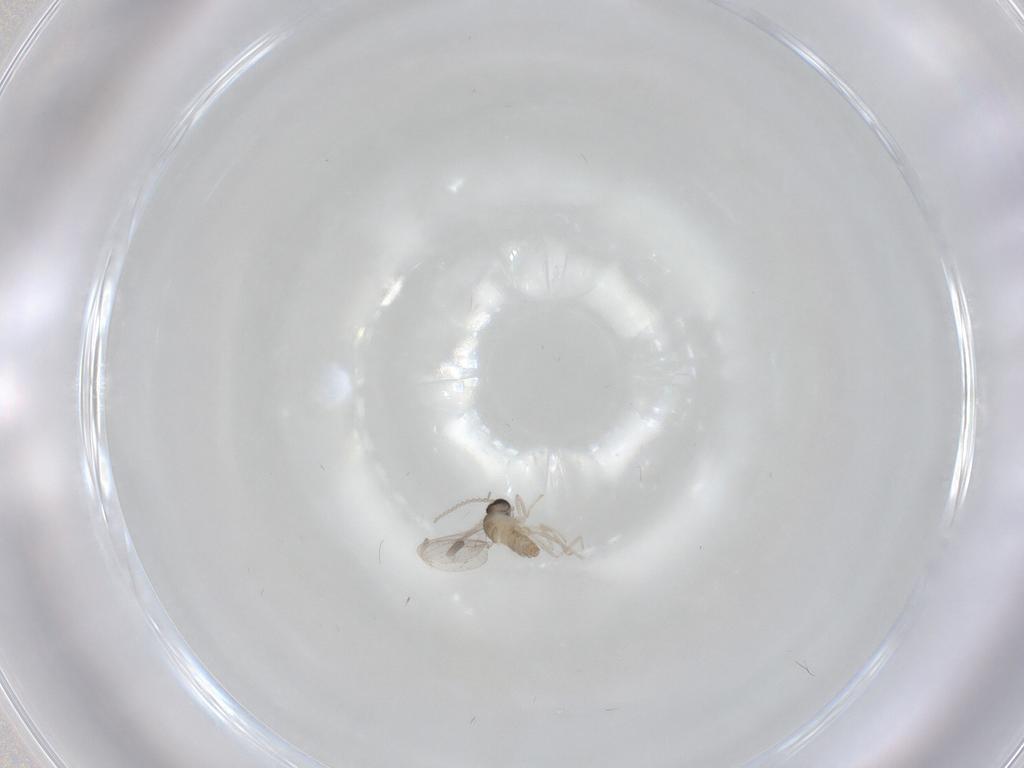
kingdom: Animalia
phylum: Arthropoda
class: Insecta
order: Diptera
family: Cecidomyiidae
